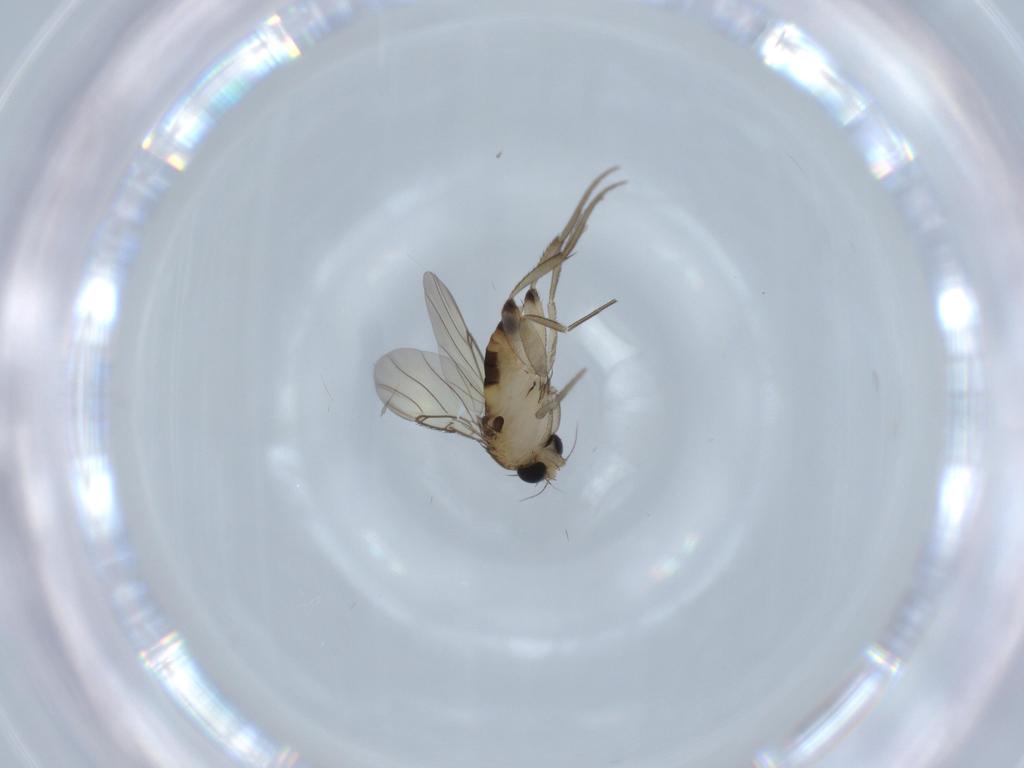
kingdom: Animalia
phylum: Arthropoda
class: Insecta
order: Diptera
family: Phoridae
